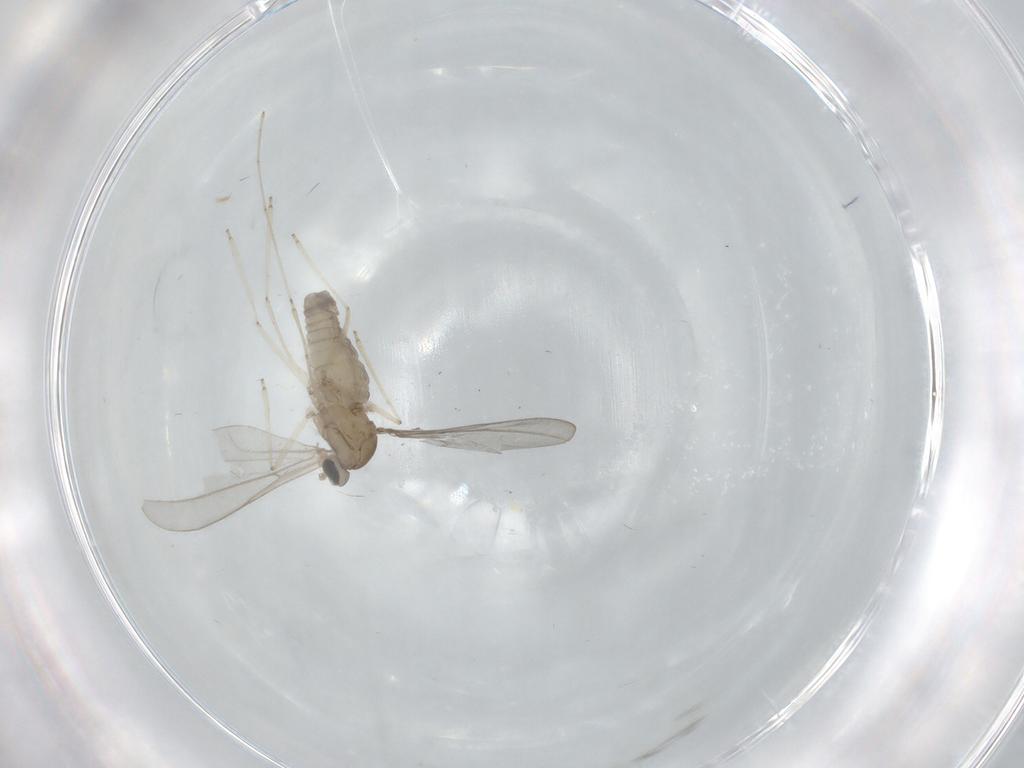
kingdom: Animalia
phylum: Arthropoda
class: Insecta
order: Diptera
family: Cecidomyiidae
